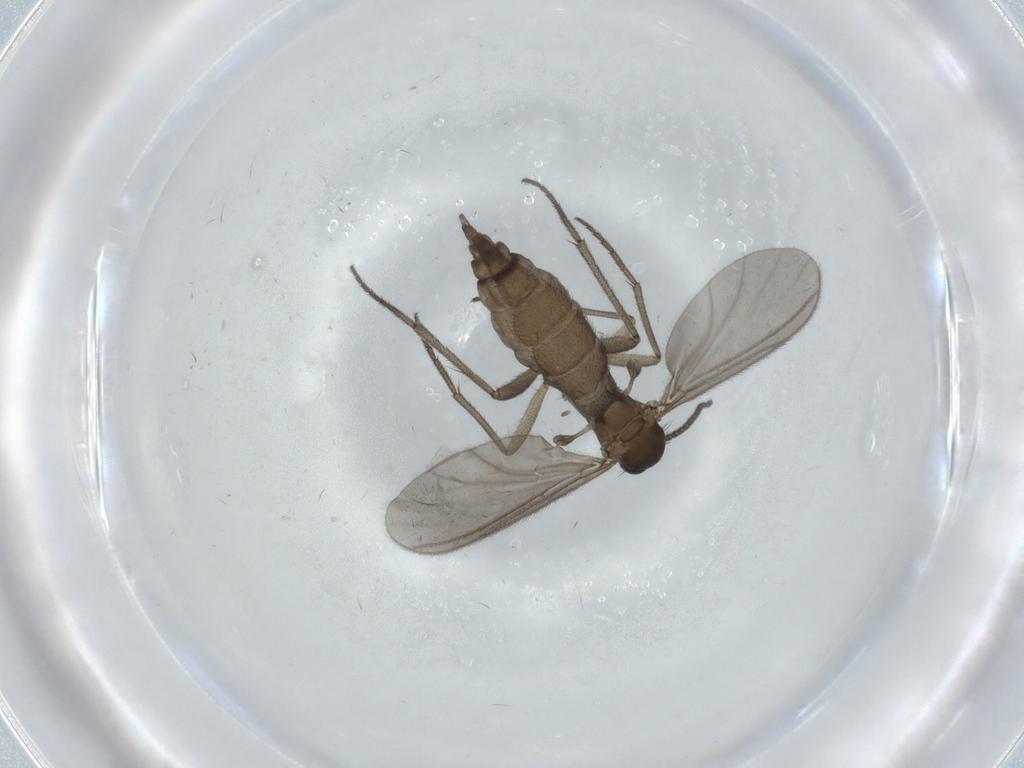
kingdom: Animalia
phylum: Arthropoda
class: Insecta
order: Diptera
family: Sciaridae
